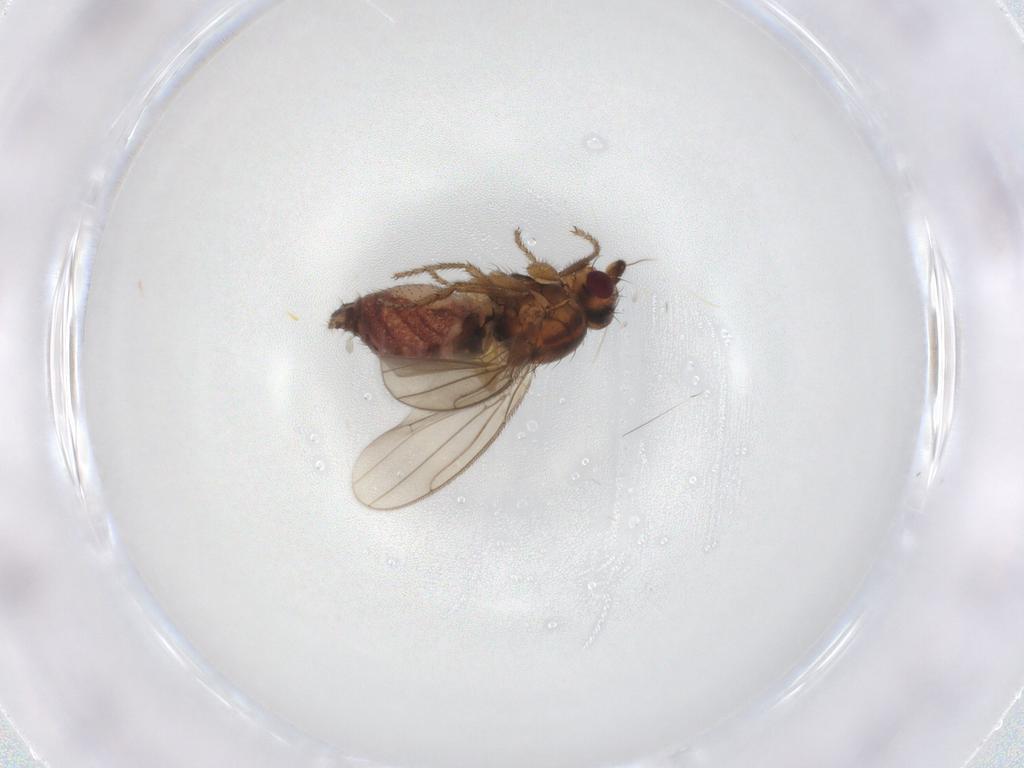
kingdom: Animalia
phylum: Arthropoda
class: Insecta
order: Diptera
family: Sphaeroceridae
